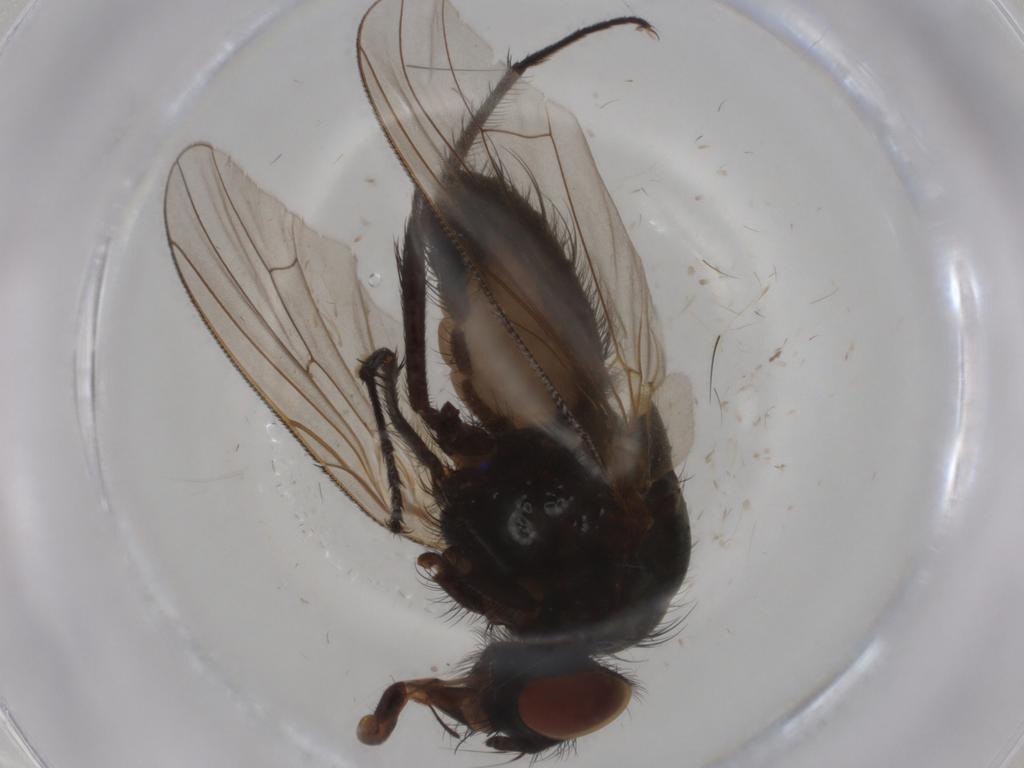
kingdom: Animalia
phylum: Arthropoda
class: Insecta
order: Diptera
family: Anthomyiidae
